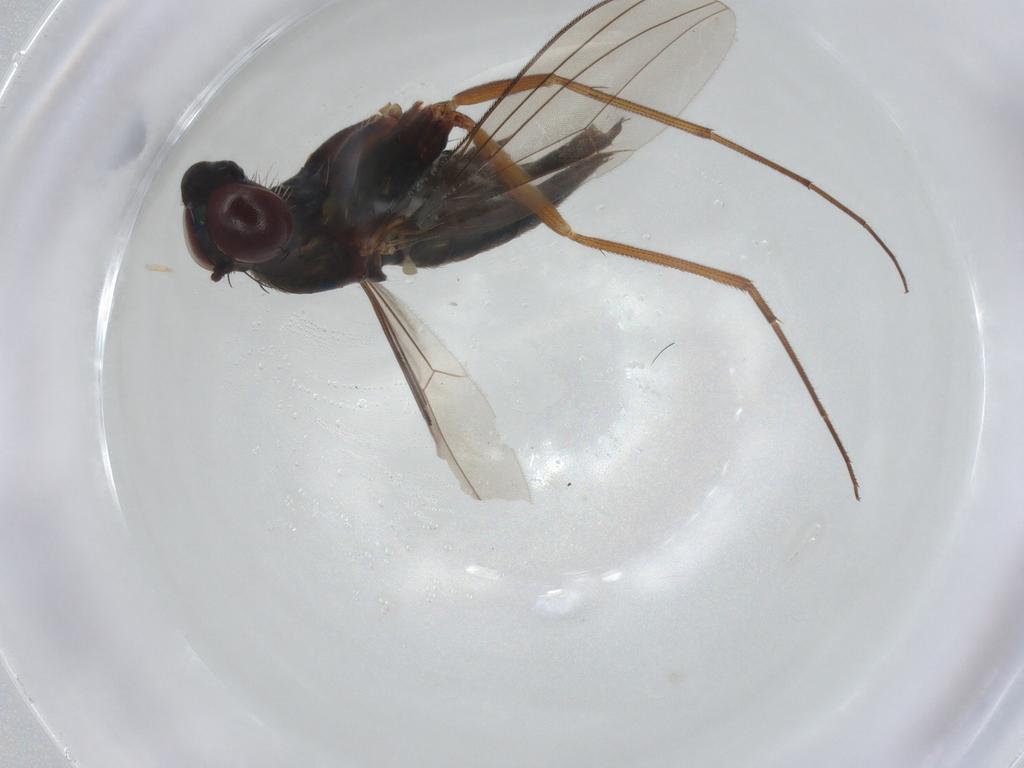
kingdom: Animalia
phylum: Arthropoda
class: Insecta
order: Diptera
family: Dolichopodidae
